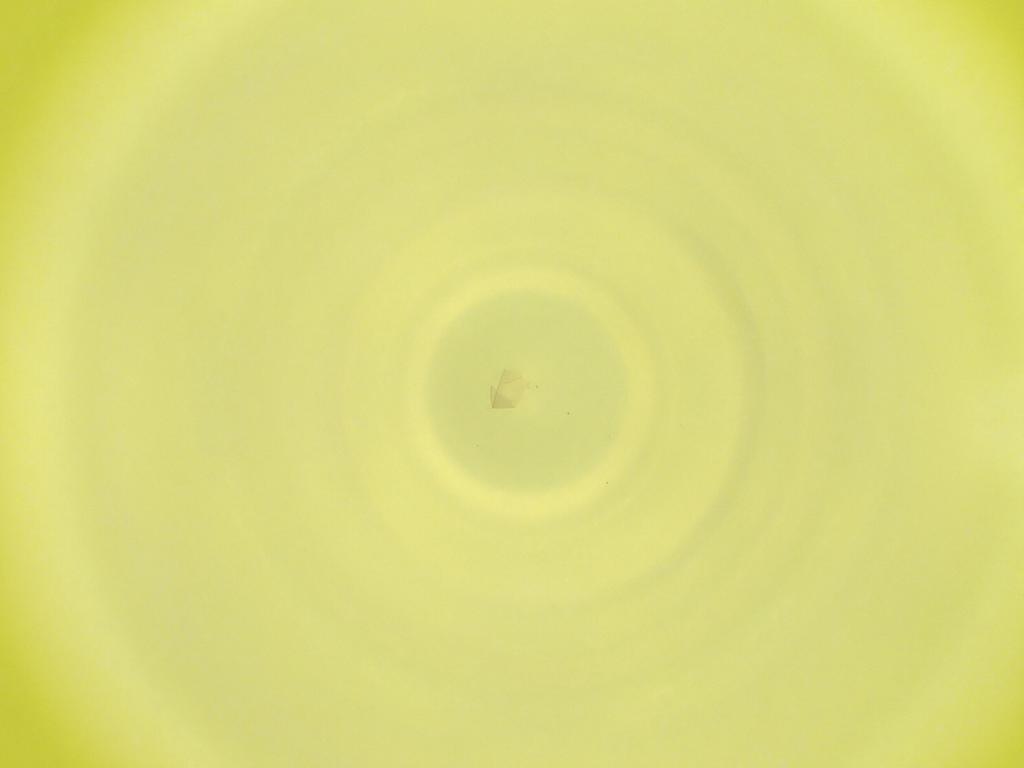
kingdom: Animalia
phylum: Arthropoda
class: Insecta
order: Diptera
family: Cecidomyiidae
